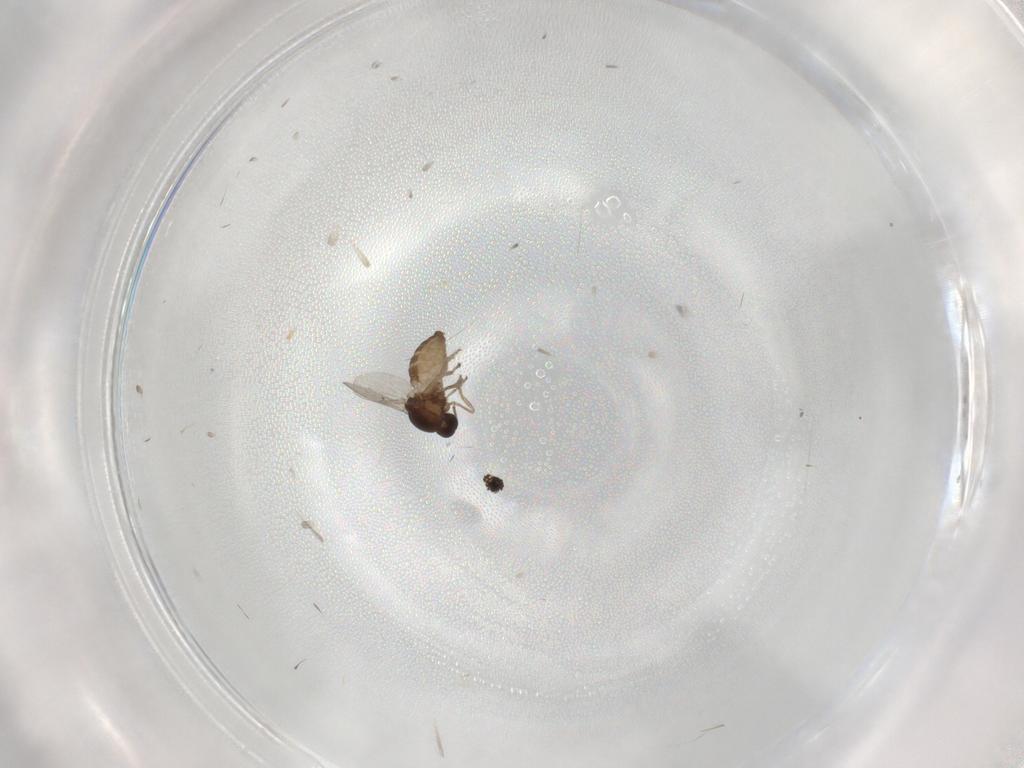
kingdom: Animalia
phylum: Arthropoda
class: Insecta
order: Diptera
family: Ceratopogonidae
